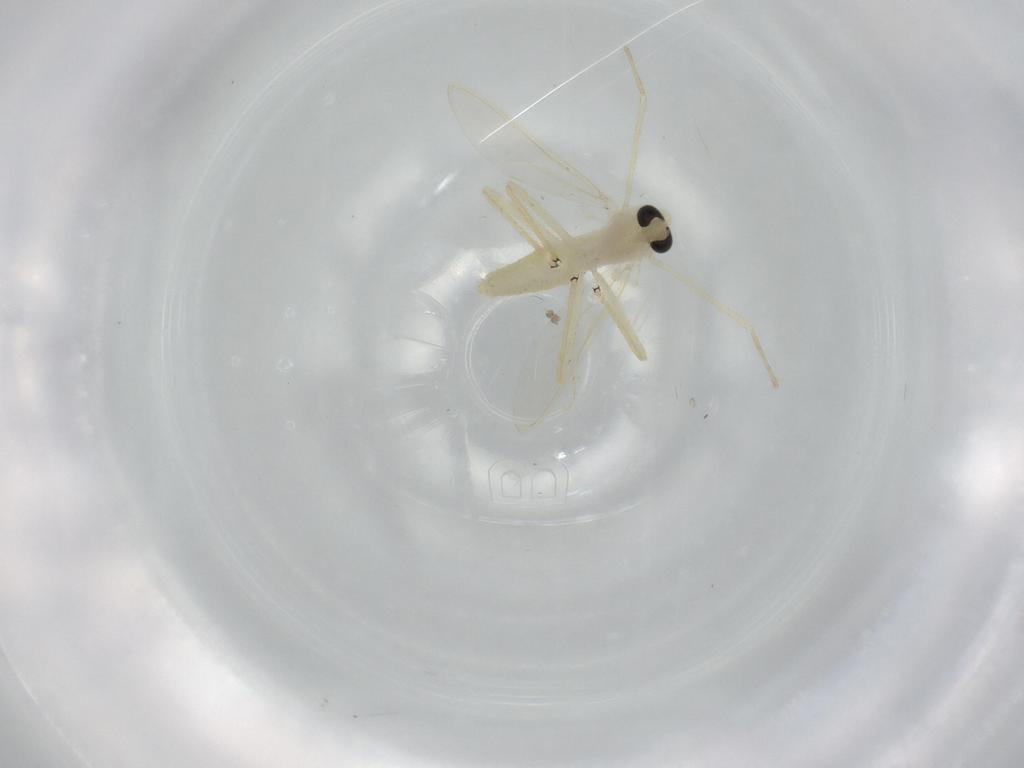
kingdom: Animalia
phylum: Arthropoda
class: Insecta
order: Diptera
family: Chironomidae
